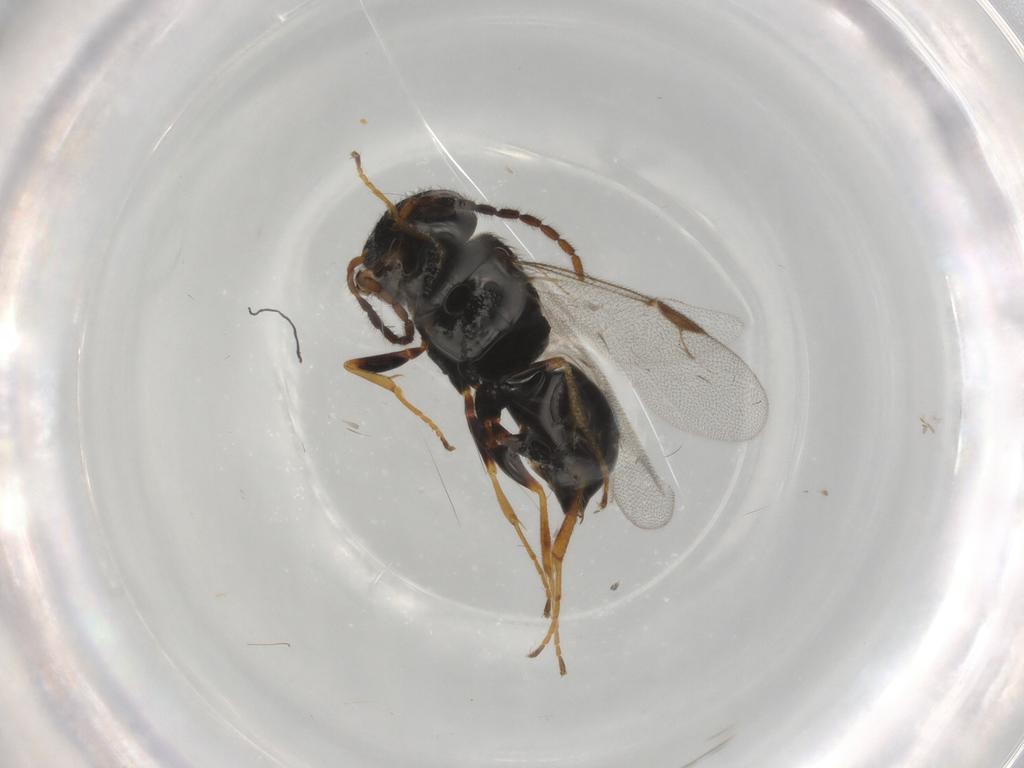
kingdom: Animalia
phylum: Arthropoda
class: Insecta
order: Hymenoptera
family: Dryinidae
